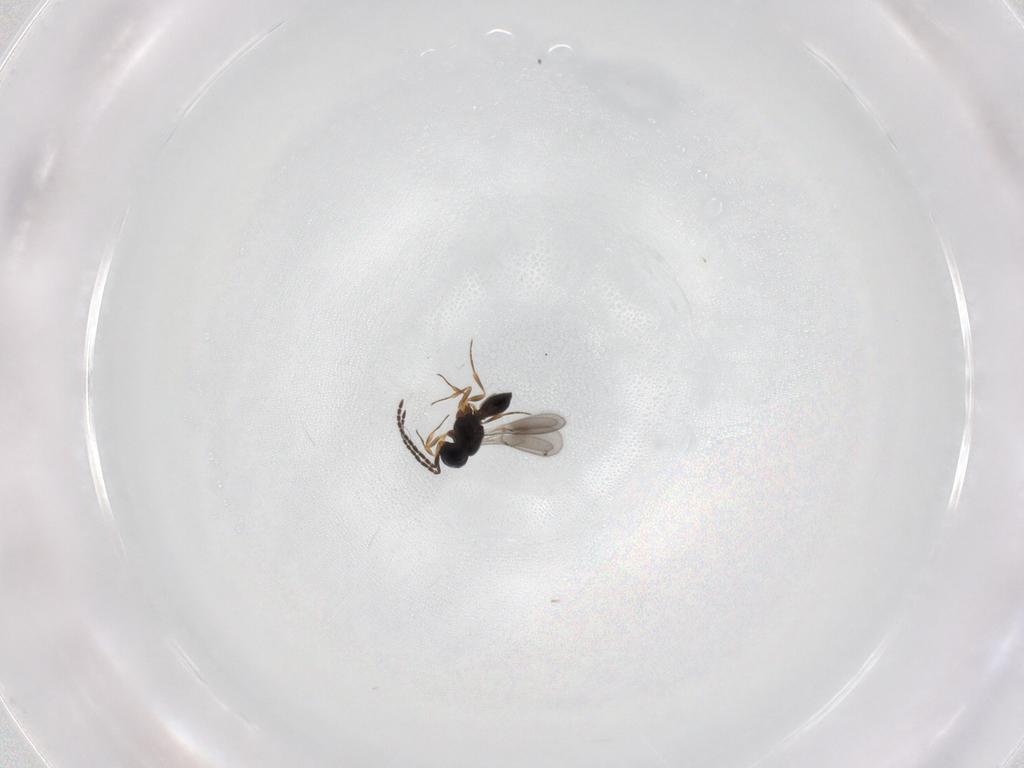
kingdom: Animalia
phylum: Arthropoda
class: Insecta
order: Hymenoptera
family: Scelionidae
